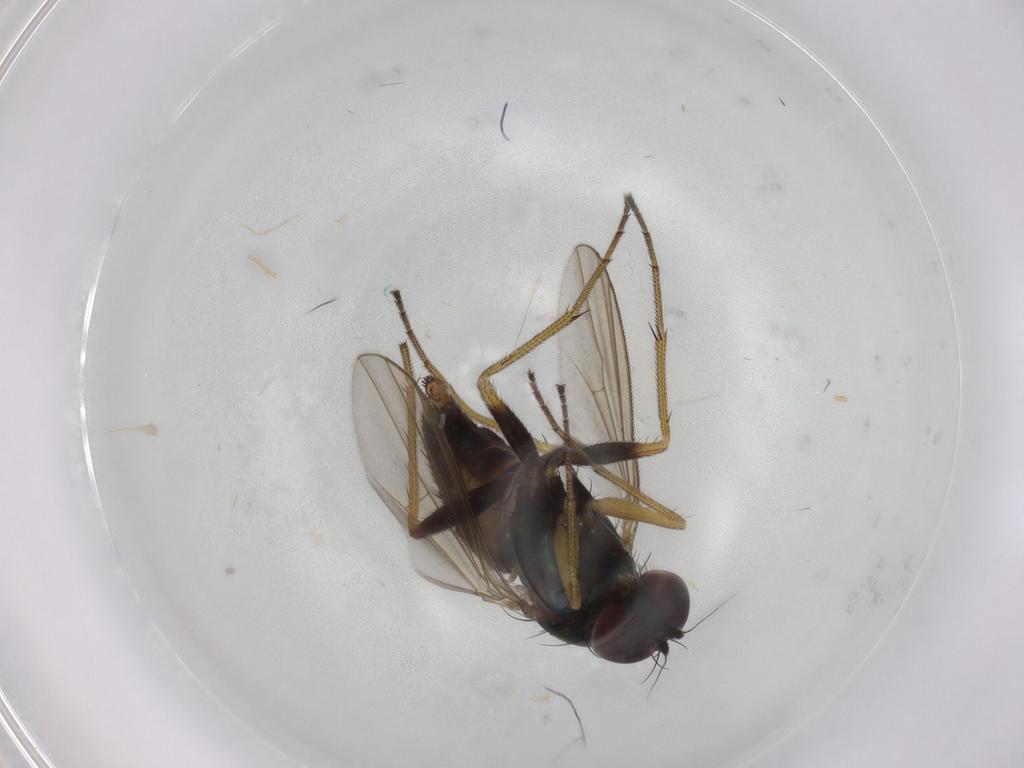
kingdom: Animalia
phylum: Arthropoda
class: Insecta
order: Diptera
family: Dolichopodidae
